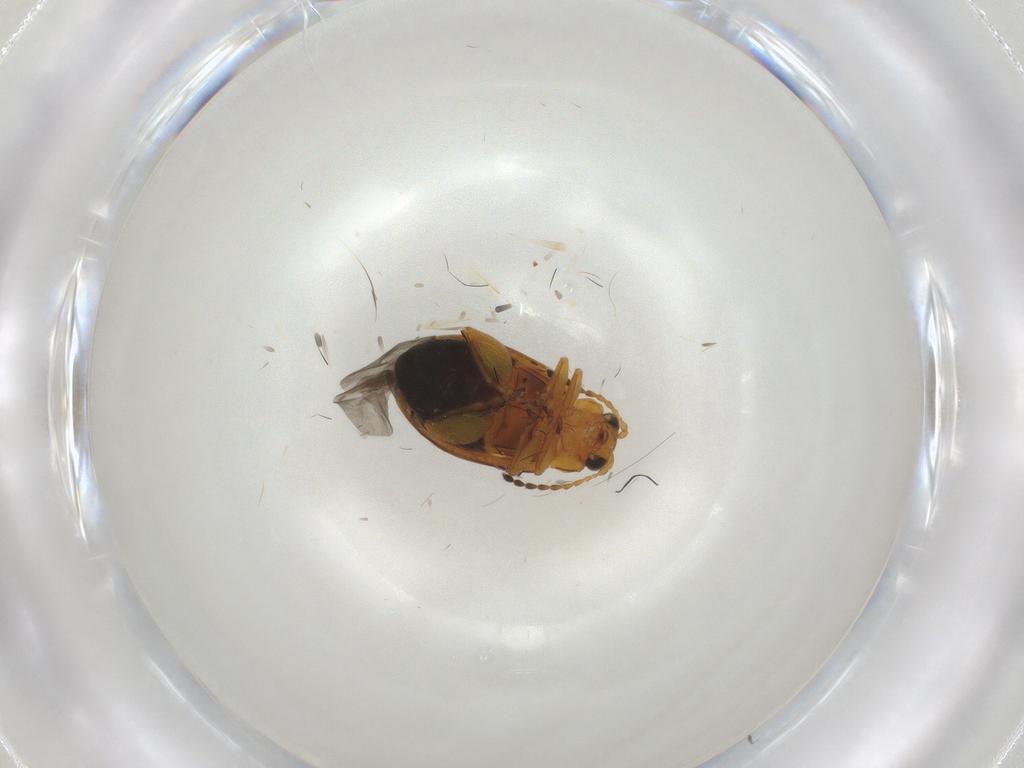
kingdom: Animalia
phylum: Arthropoda
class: Insecta
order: Coleoptera
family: Chrysomelidae
